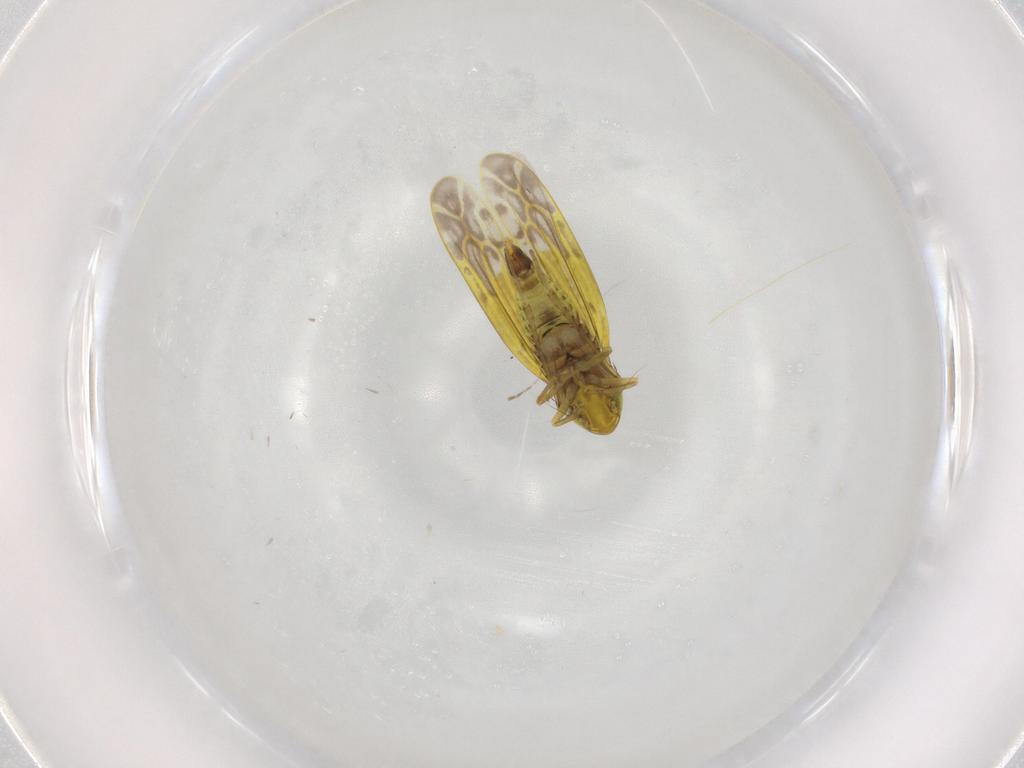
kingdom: Animalia
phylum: Arthropoda
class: Insecta
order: Hemiptera
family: Cicadellidae
